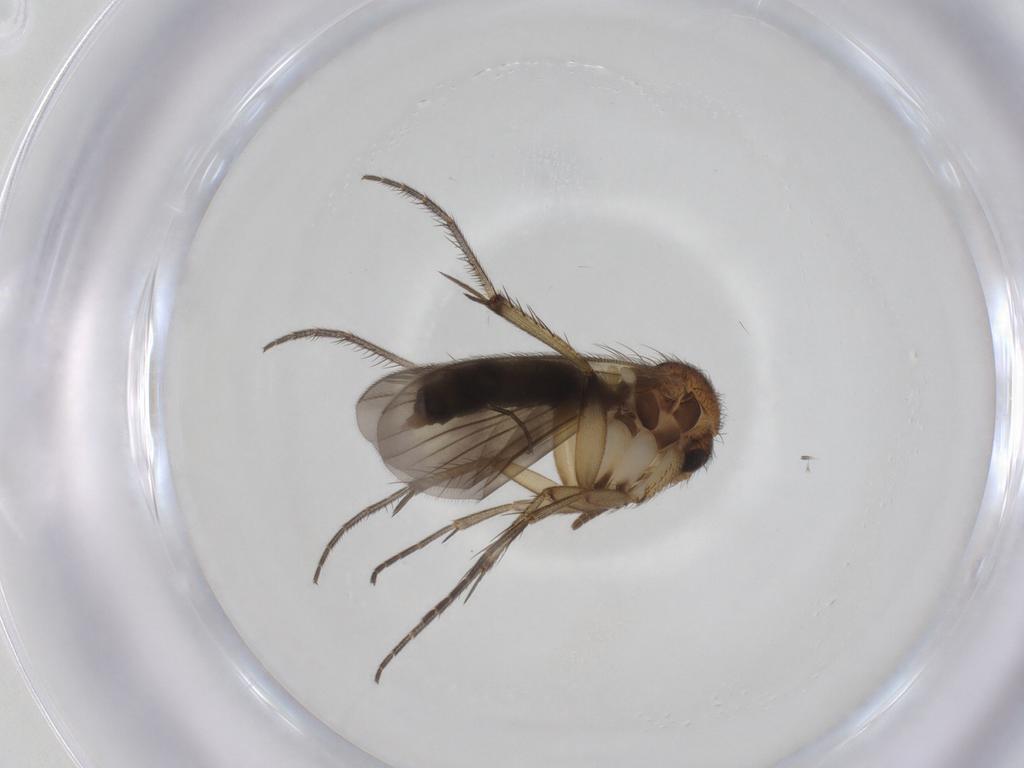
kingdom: Animalia
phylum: Arthropoda
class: Insecta
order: Diptera
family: Mycetophilidae
